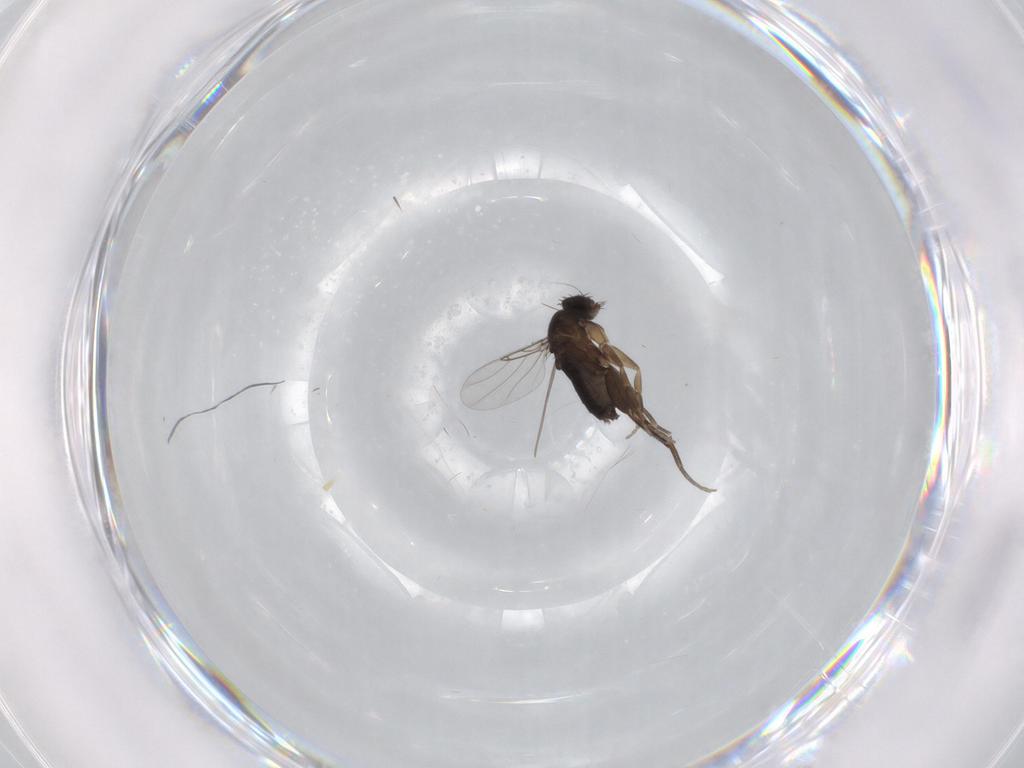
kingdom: Animalia
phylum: Arthropoda
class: Insecta
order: Diptera
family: Phoridae
